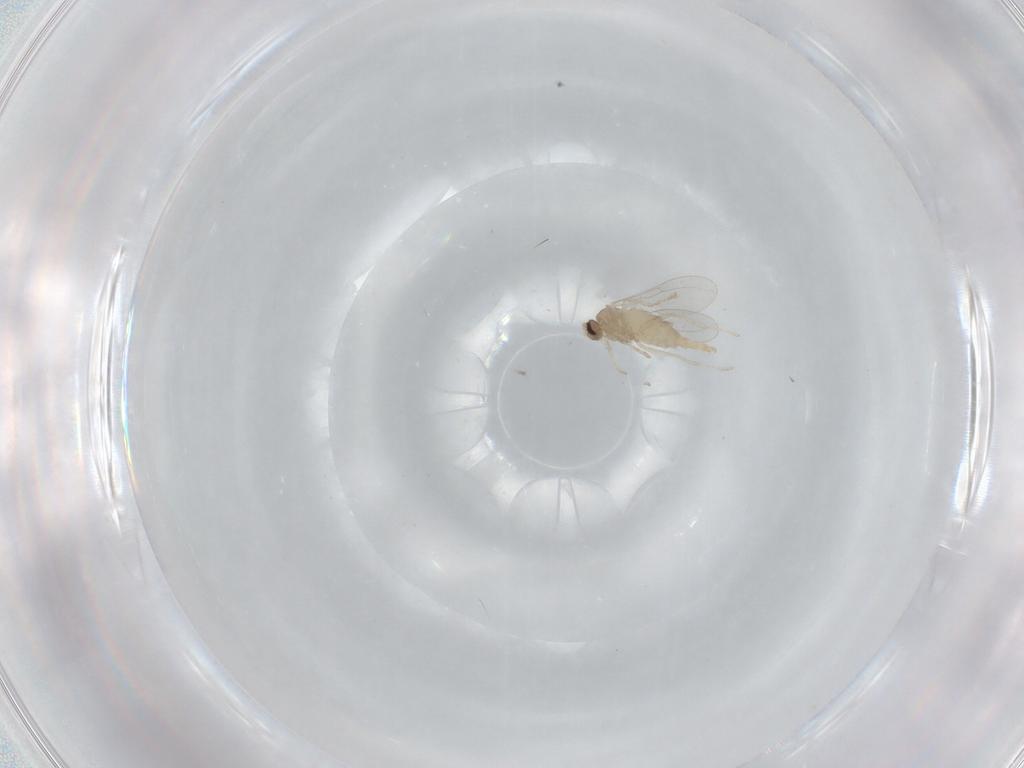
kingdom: Animalia
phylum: Arthropoda
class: Insecta
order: Diptera
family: Cecidomyiidae
